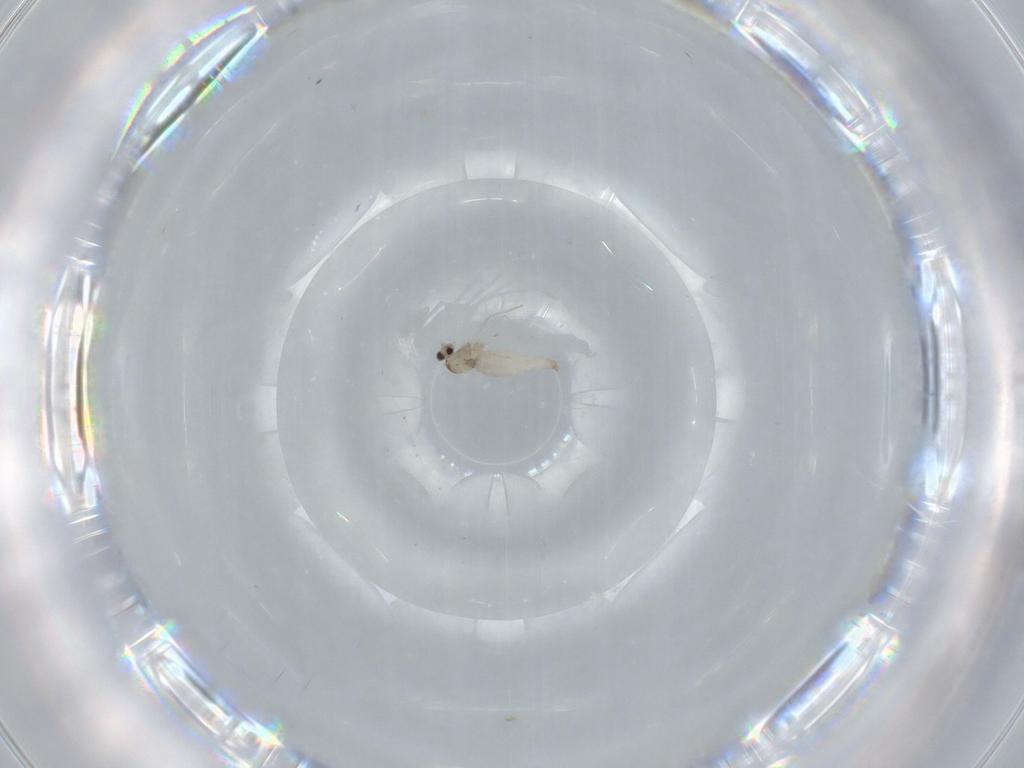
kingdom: Animalia
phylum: Arthropoda
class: Insecta
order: Diptera
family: Cecidomyiidae
